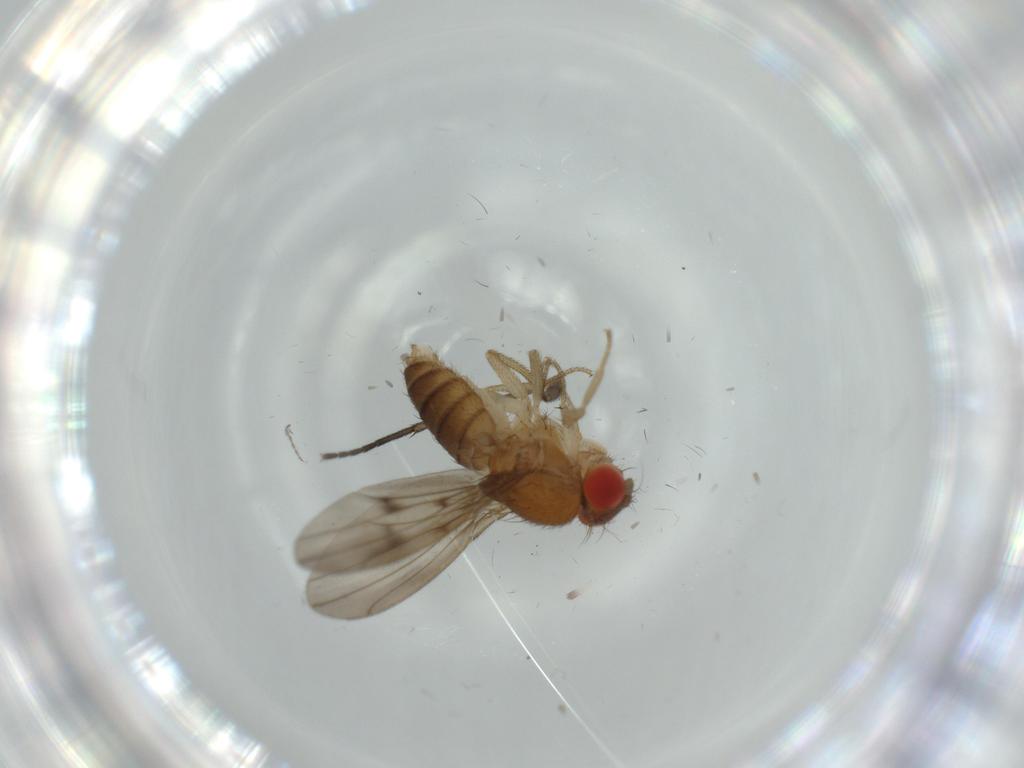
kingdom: Animalia
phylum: Arthropoda
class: Insecta
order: Diptera
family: Drosophilidae
